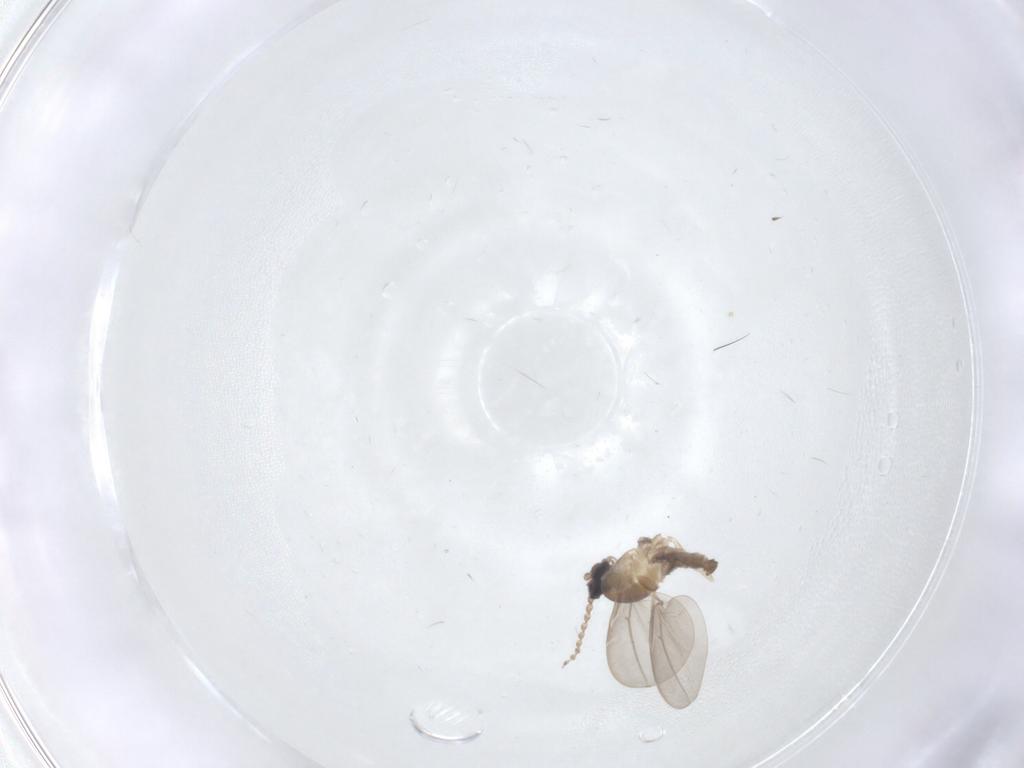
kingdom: Animalia
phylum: Arthropoda
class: Insecta
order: Diptera
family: Cecidomyiidae
